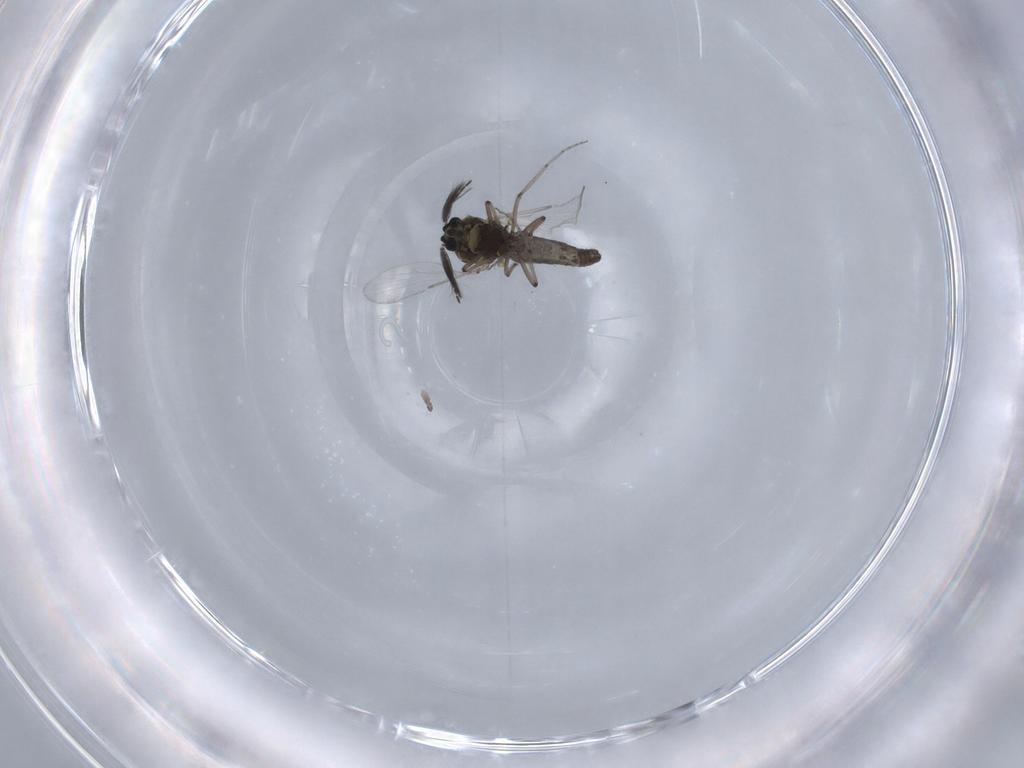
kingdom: Animalia
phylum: Arthropoda
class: Insecta
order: Diptera
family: Ceratopogonidae
